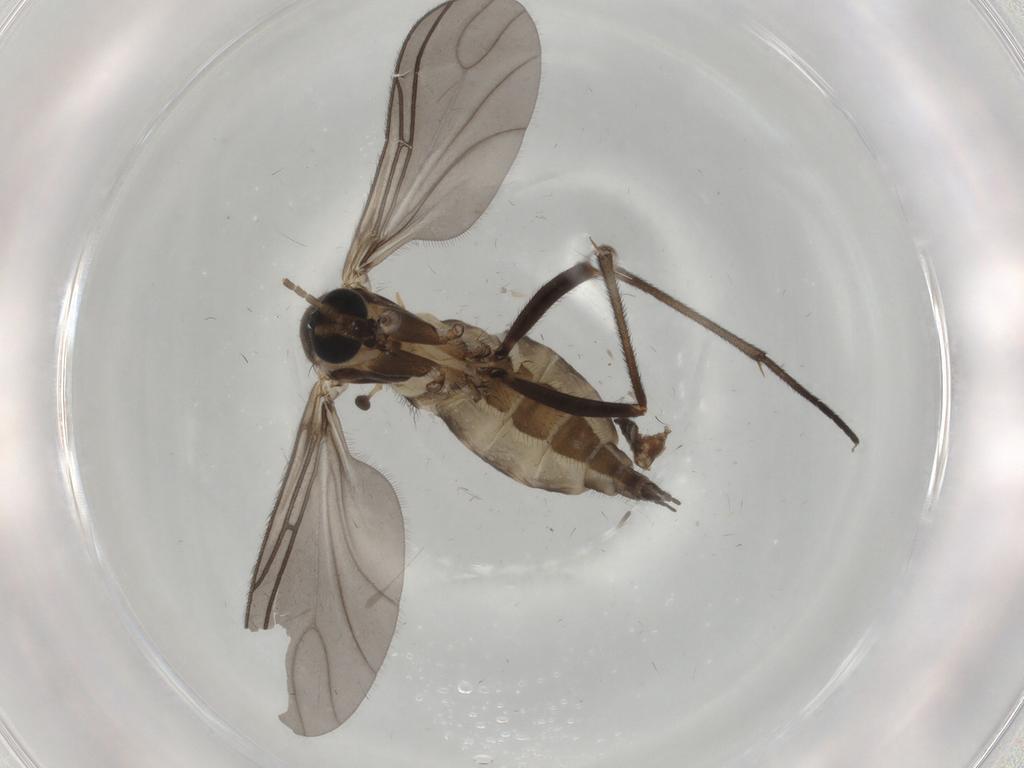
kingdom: Animalia
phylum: Arthropoda
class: Insecta
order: Diptera
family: Sciaridae
